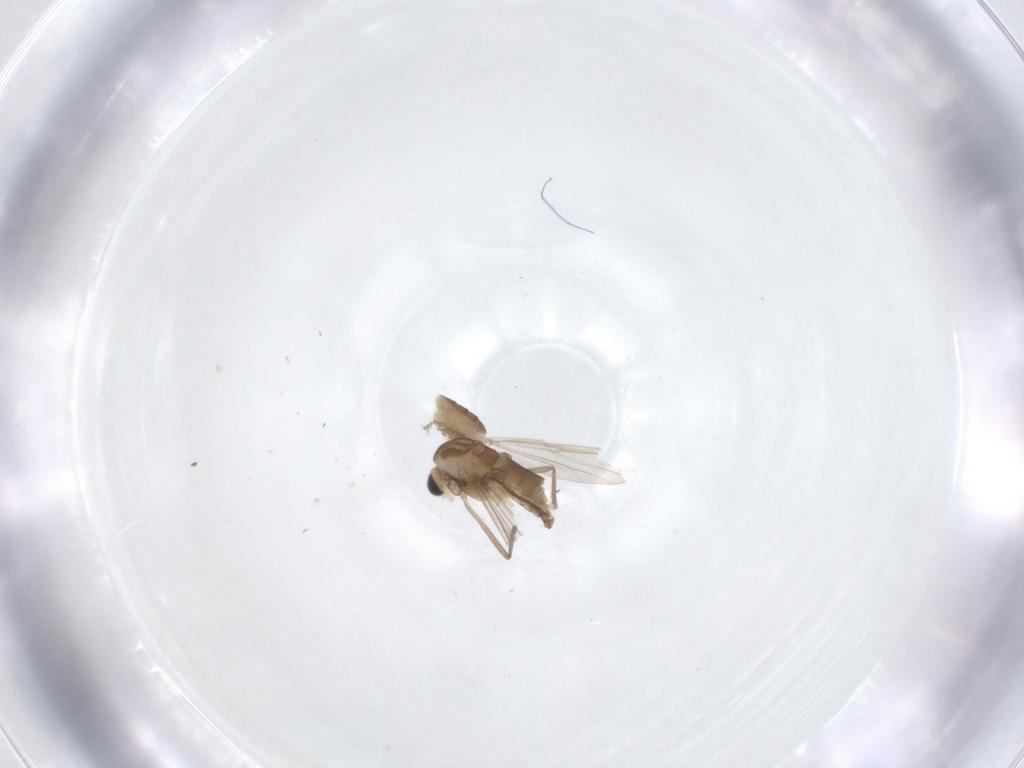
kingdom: Animalia
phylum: Arthropoda
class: Insecta
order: Diptera
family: Chironomidae
